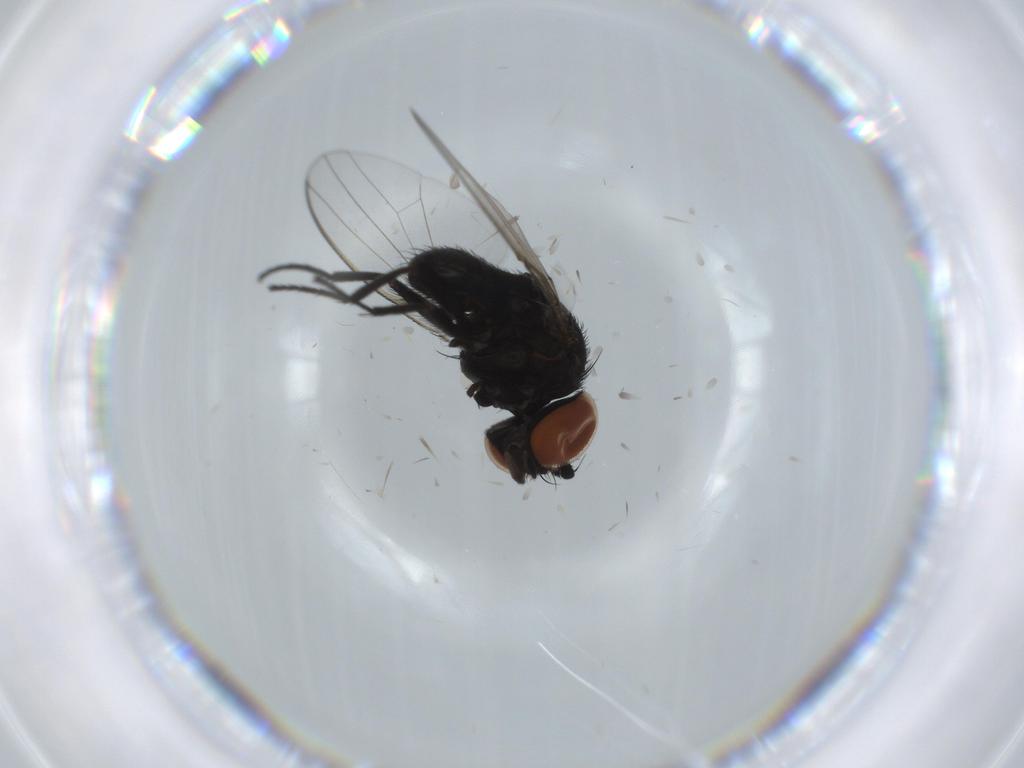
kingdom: Animalia
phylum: Arthropoda
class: Insecta
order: Diptera
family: Milichiidae
